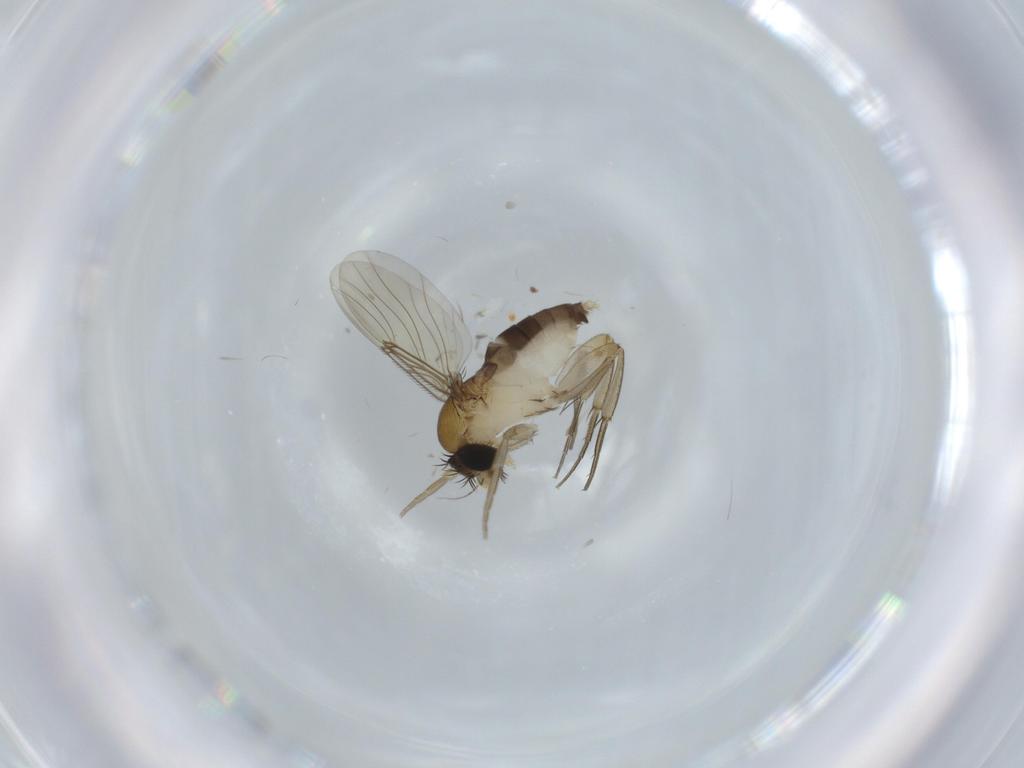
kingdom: Animalia
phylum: Arthropoda
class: Insecta
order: Diptera
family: Fannia
